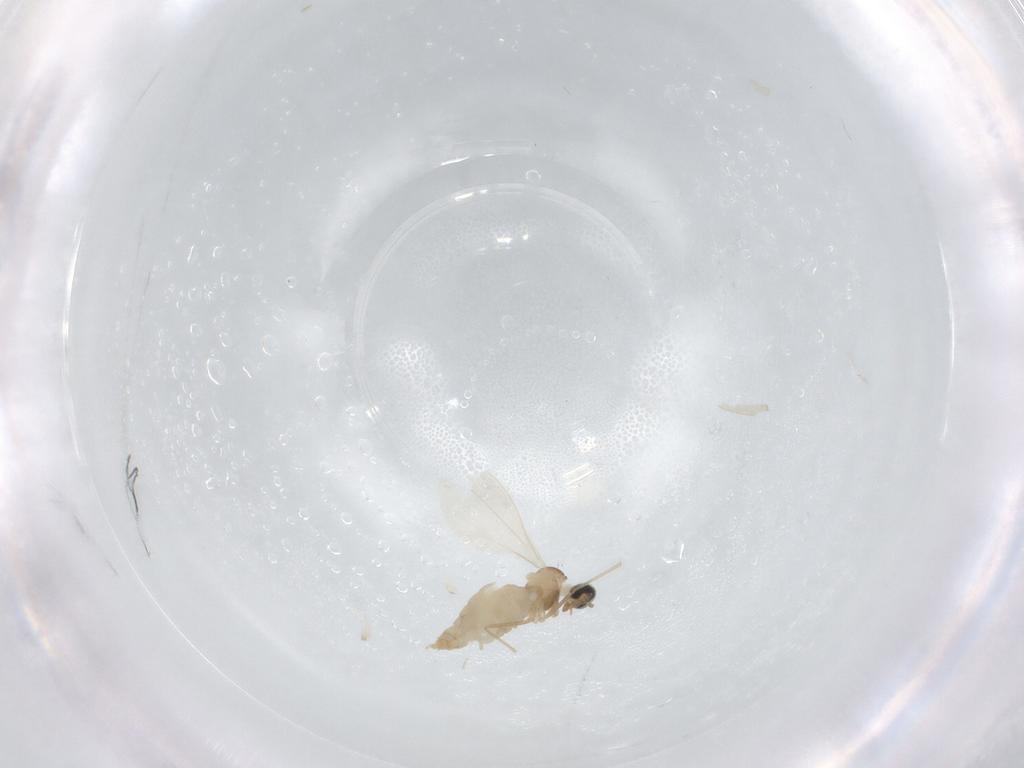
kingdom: Animalia
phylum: Arthropoda
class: Insecta
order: Diptera
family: Cecidomyiidae
